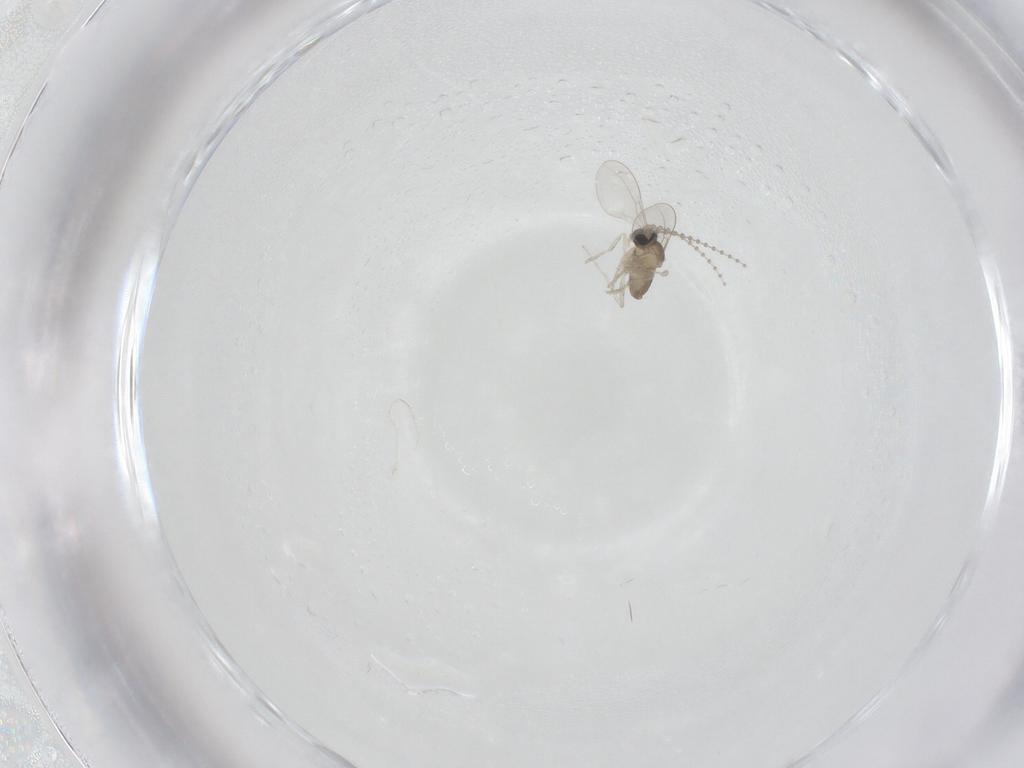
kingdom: Animalia
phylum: Arthropoda
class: Insecta
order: Diptera
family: Cecidomyiidae
